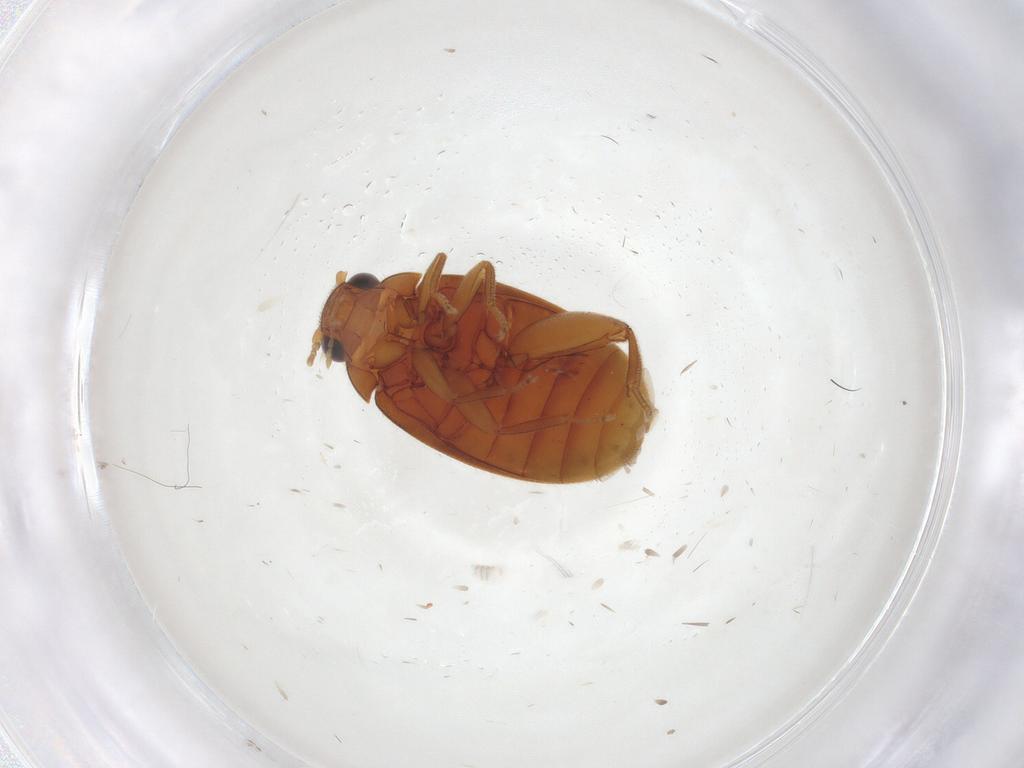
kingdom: Animalia
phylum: Arthropoda
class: Insecta
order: Coleoptera
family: Scirtidae
